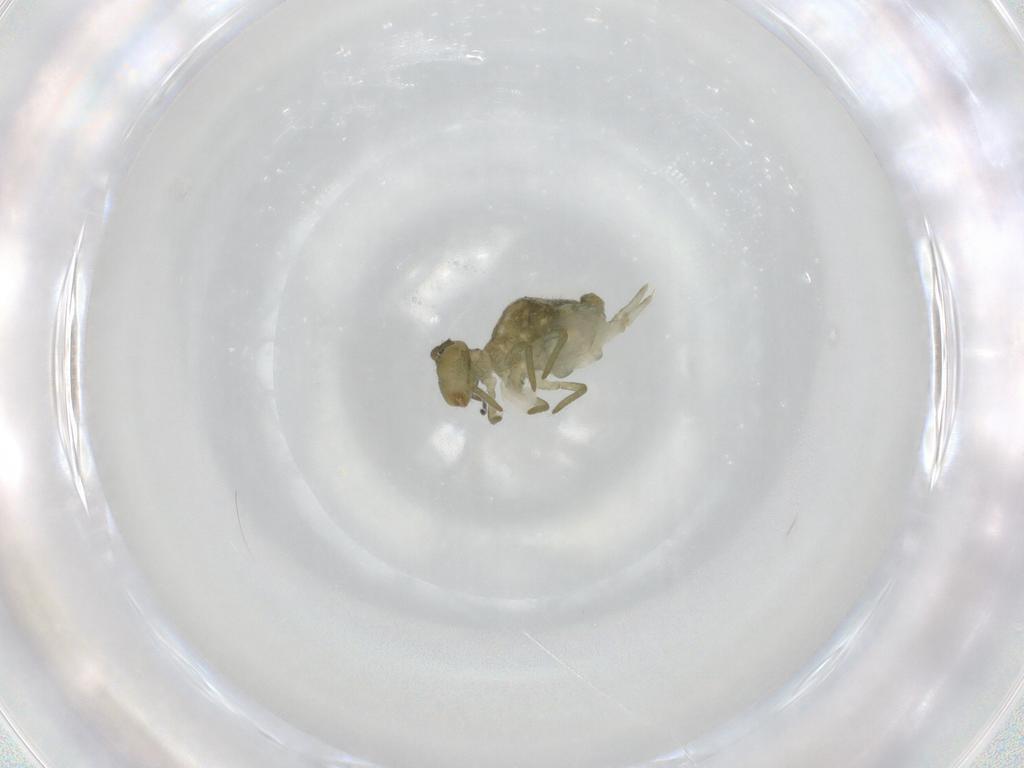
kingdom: Animalia
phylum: Arthropoda
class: Collembola
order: Symphypleona
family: Sminthuridae
